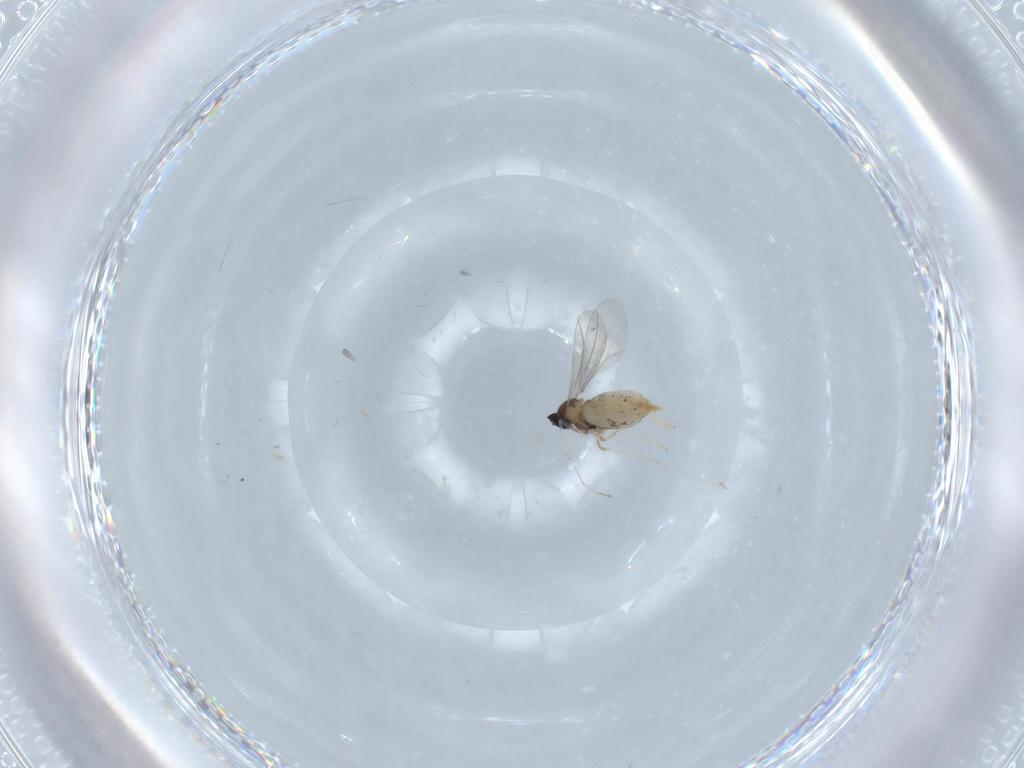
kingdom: Animalia
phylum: Arthropoda
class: Insecta
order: Diptera
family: Cecidomyiidae
